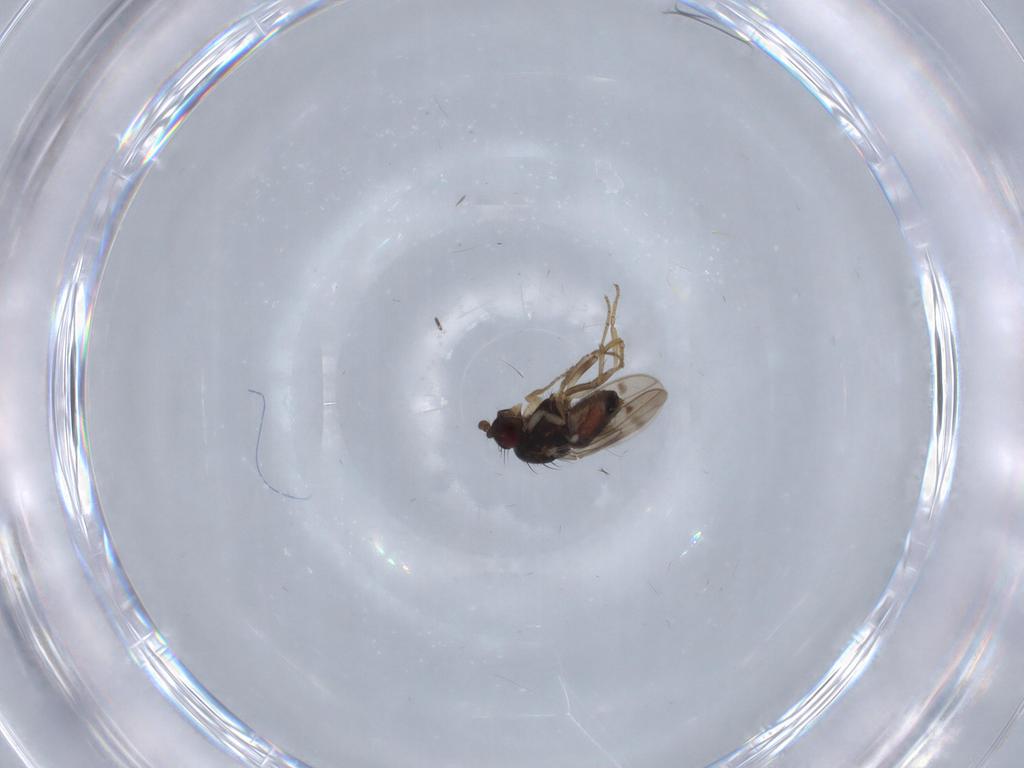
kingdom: Animalia
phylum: Arthropoda
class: Insecta
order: Diptera
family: Sphaeroceridae
